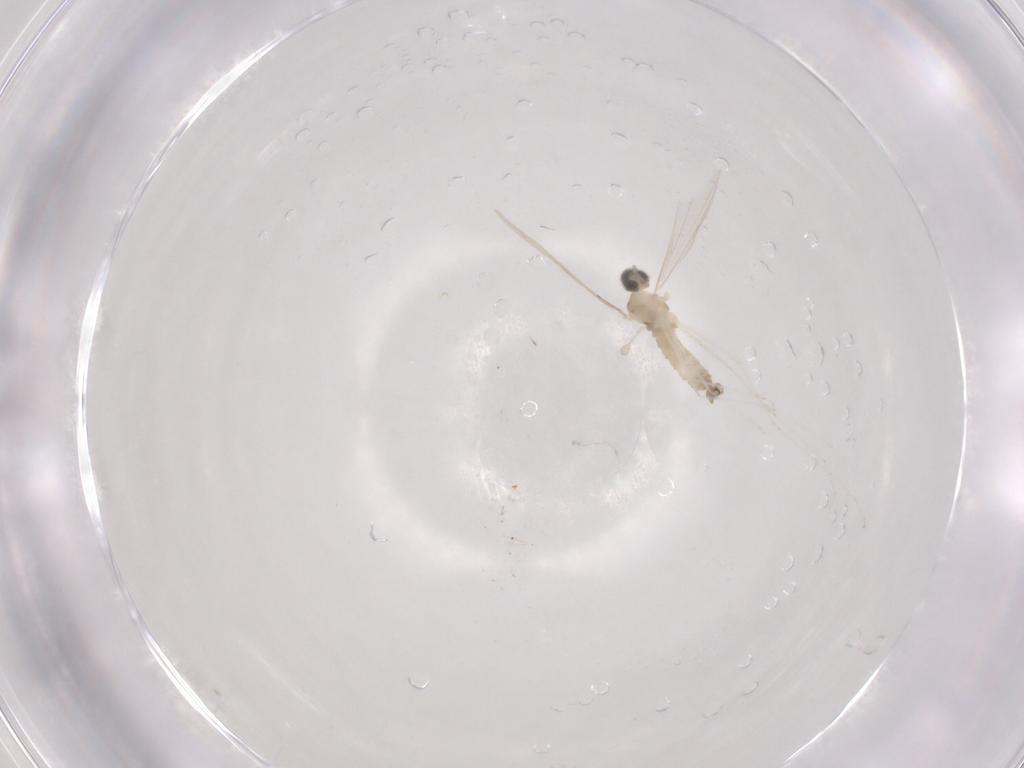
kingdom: Animalia
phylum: Arthropoda
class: Insecta
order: Diptera
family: Cecidomyiidae
